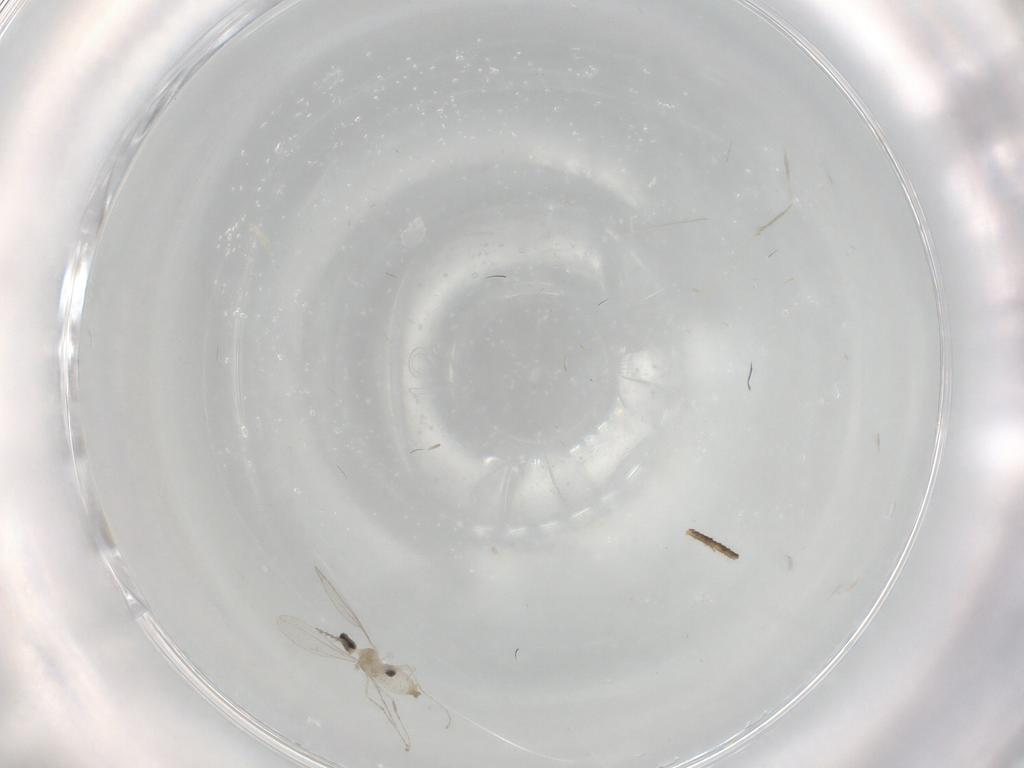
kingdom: Animalia
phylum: Arthropoda
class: Insecta
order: Diptera
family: Cecidomyiidae
